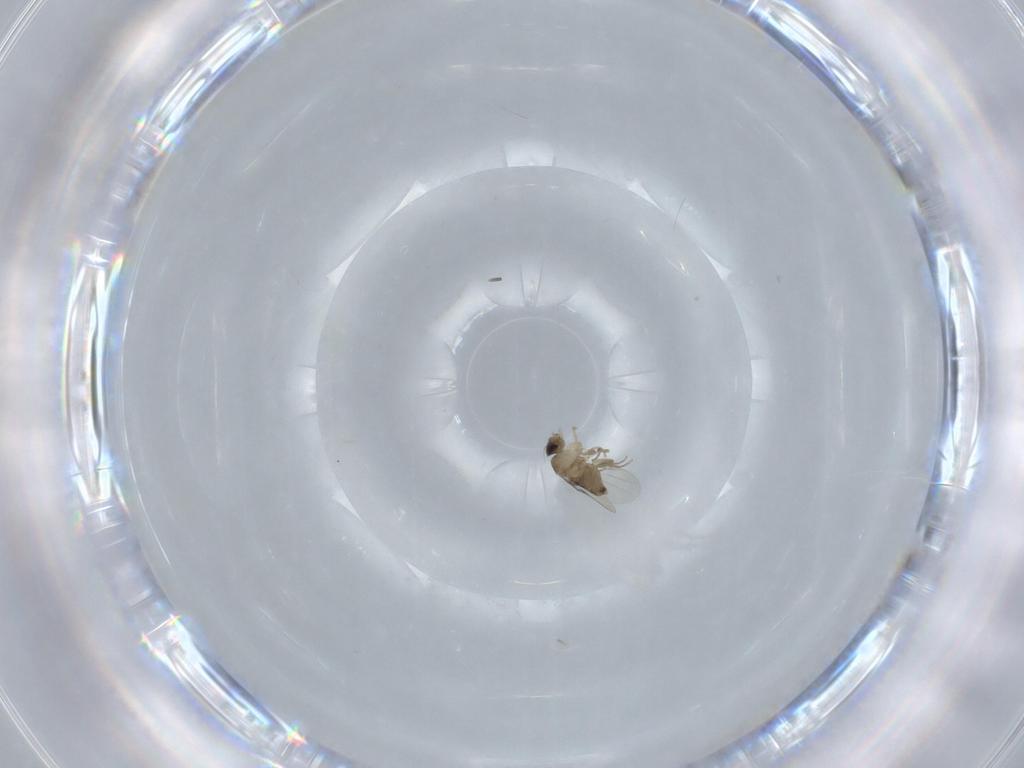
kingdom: Animalia
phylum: Arthropoda
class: Insecta
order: Diptera
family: Phoridae
